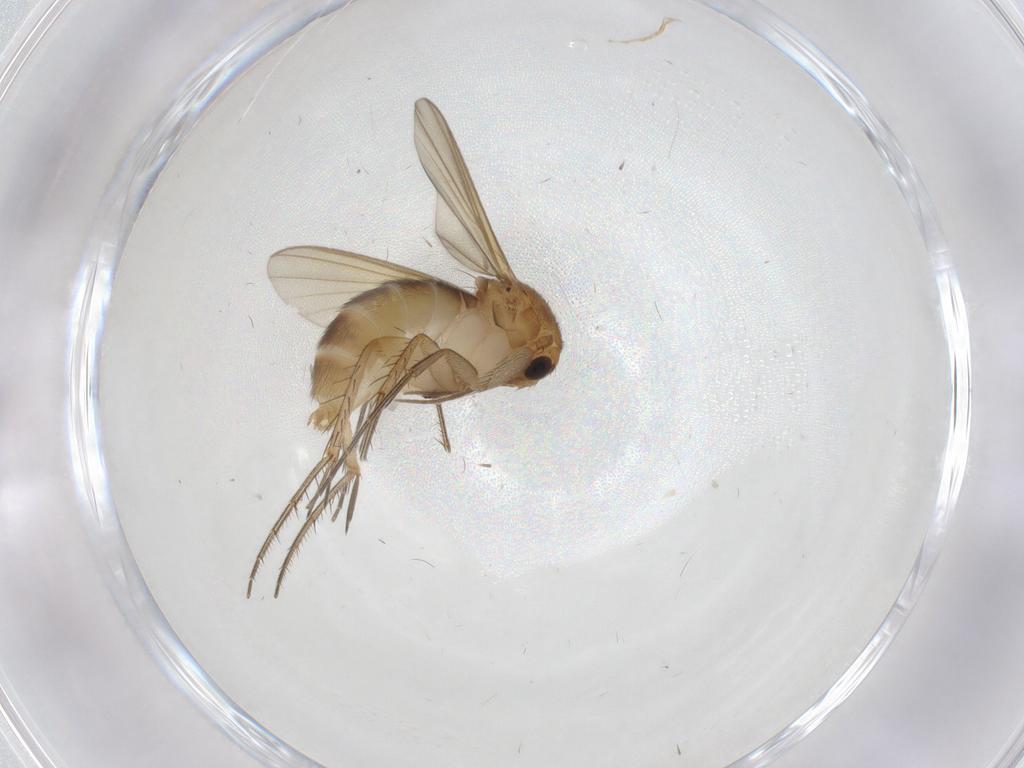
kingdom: Animalia
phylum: Arthropoda
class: Insecta
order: Diptera
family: Mycetophilidae
